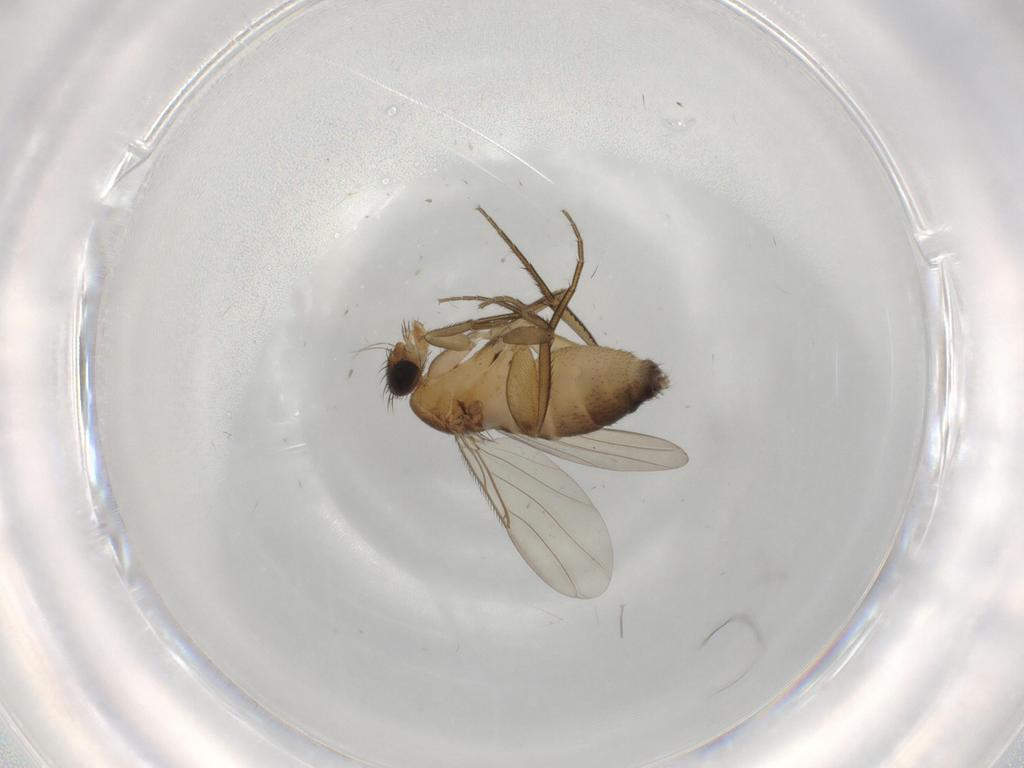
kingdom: Animalia
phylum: Arthropoda
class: Insecta
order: Diptera
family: Phoridae
